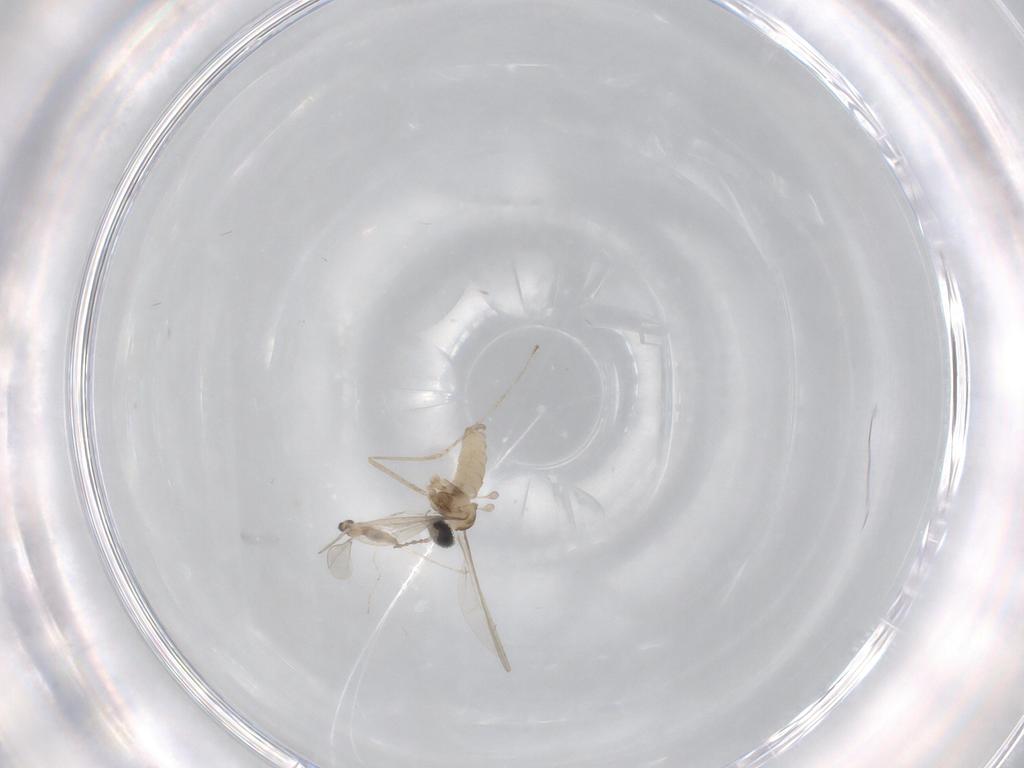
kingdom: Animalia
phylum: Arthropoda
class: Insecta
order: Diptera
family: Cecidomyiidae
